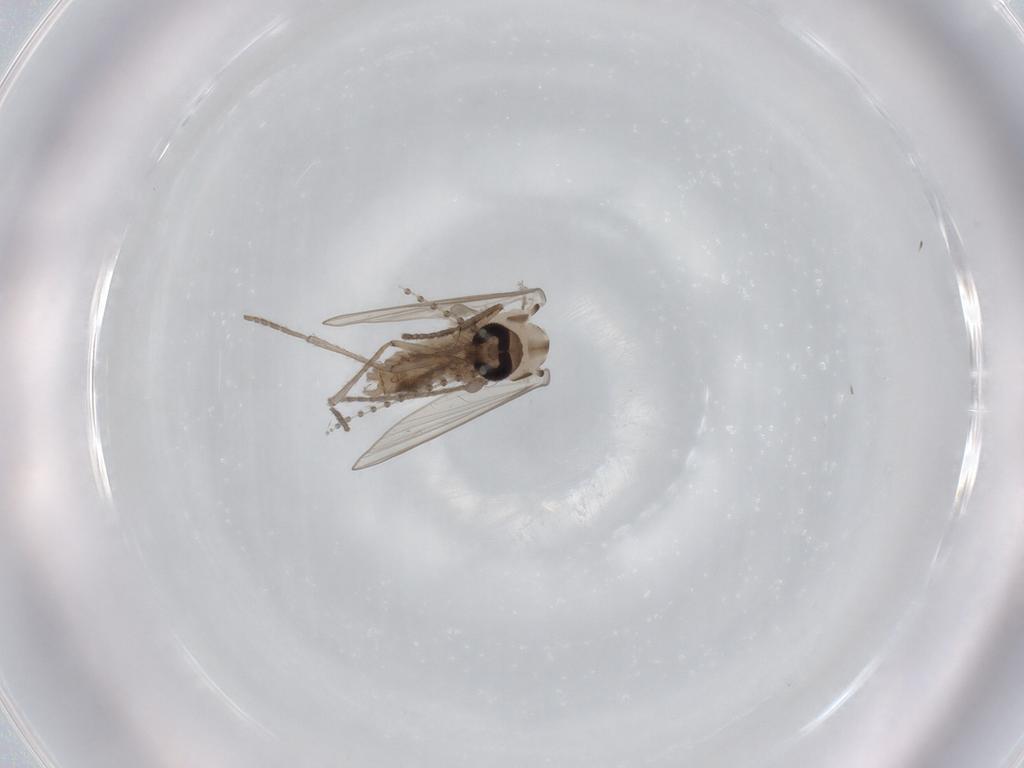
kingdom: Animalia
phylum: Arthropoda
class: Insecta
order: Diptera
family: Psychodidae
